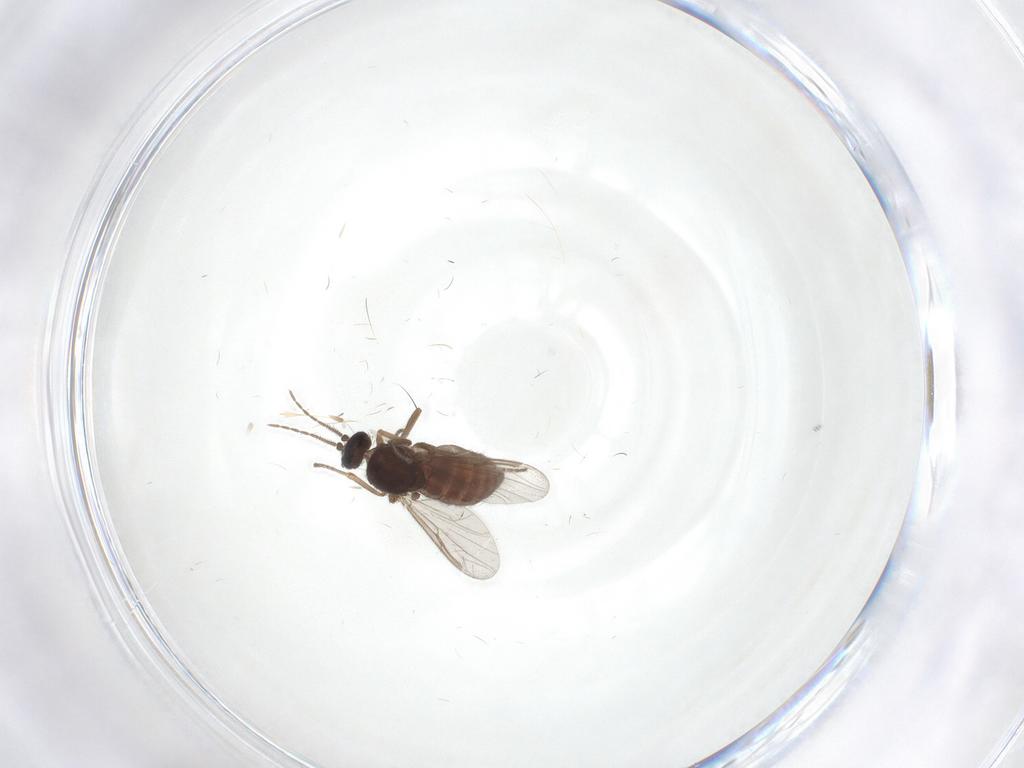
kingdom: Animalia
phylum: Arthropoda
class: Insecta
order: Diptera
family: Ceratopogonidae
